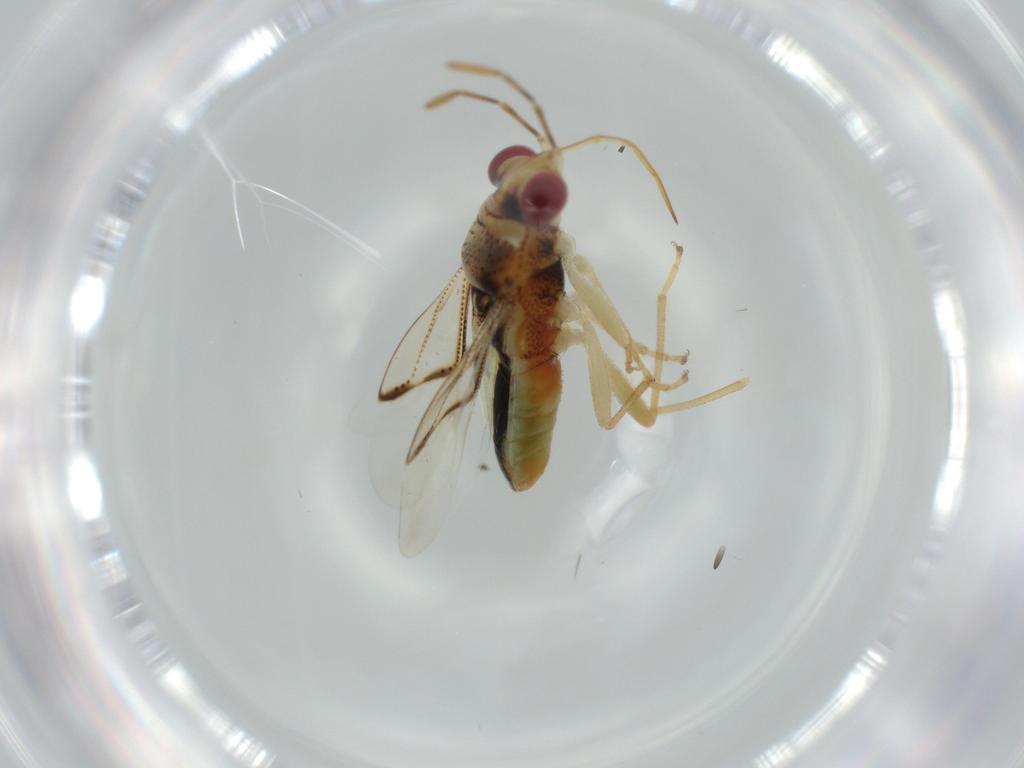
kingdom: Animalia
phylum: Arthropoda
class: Insecta
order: Hemiptera
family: Geocoridae
